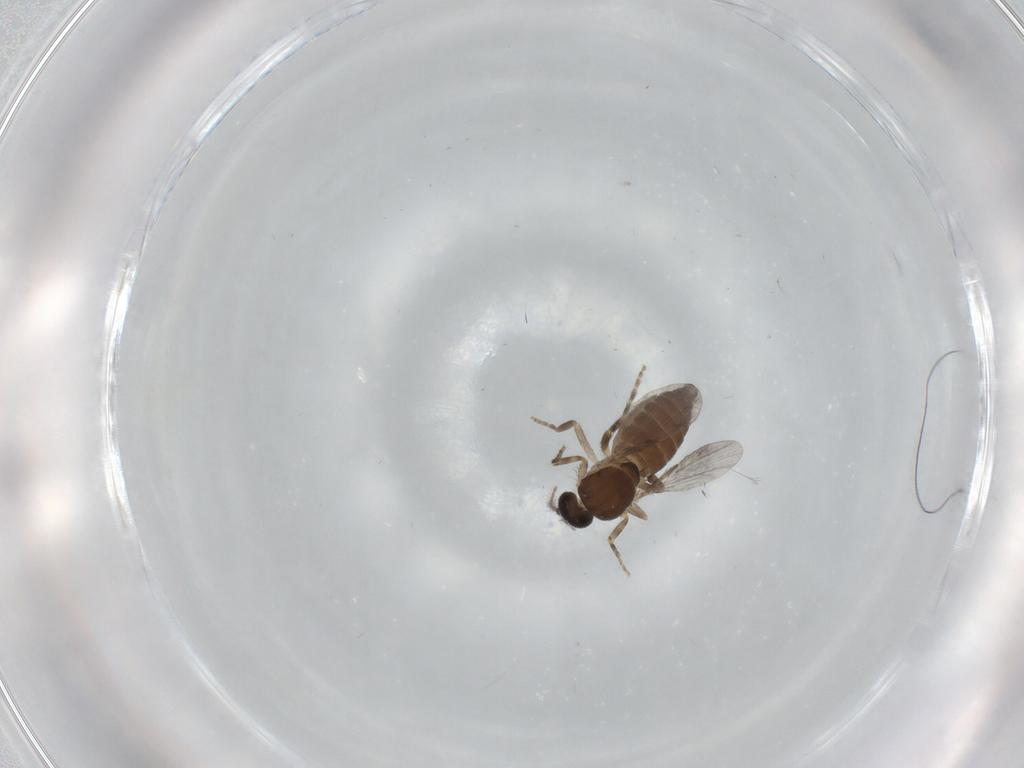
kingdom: Animalia
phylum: Arthropoda
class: Insecta
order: Diptera
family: Ceratopogonidae
